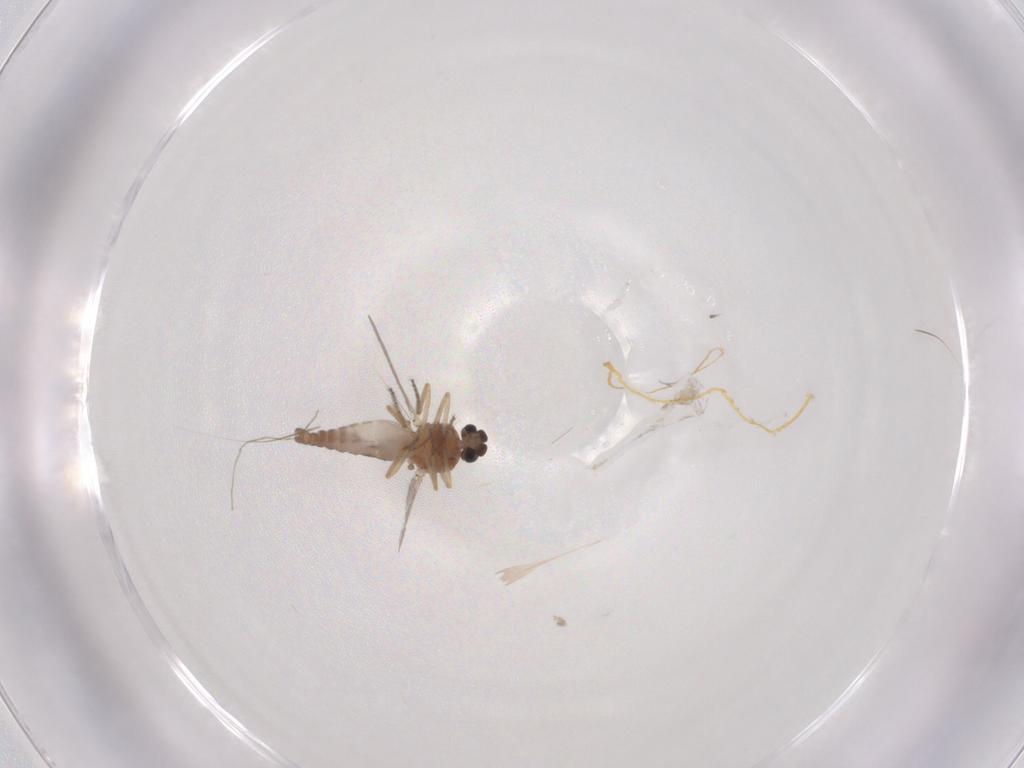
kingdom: Animalia
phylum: Arthropoda
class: Insecta
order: Diptera
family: Ceratopogonidae
